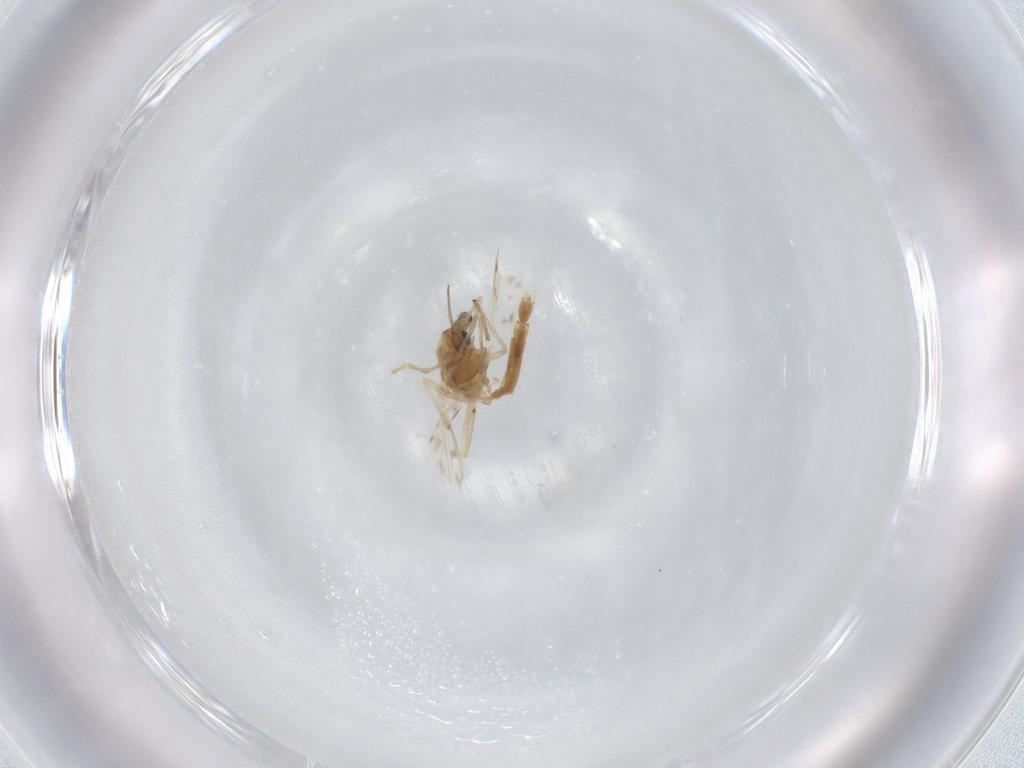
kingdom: Animalia
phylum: Arthropoda
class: Insecta
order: Diptera
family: Chironomidae
